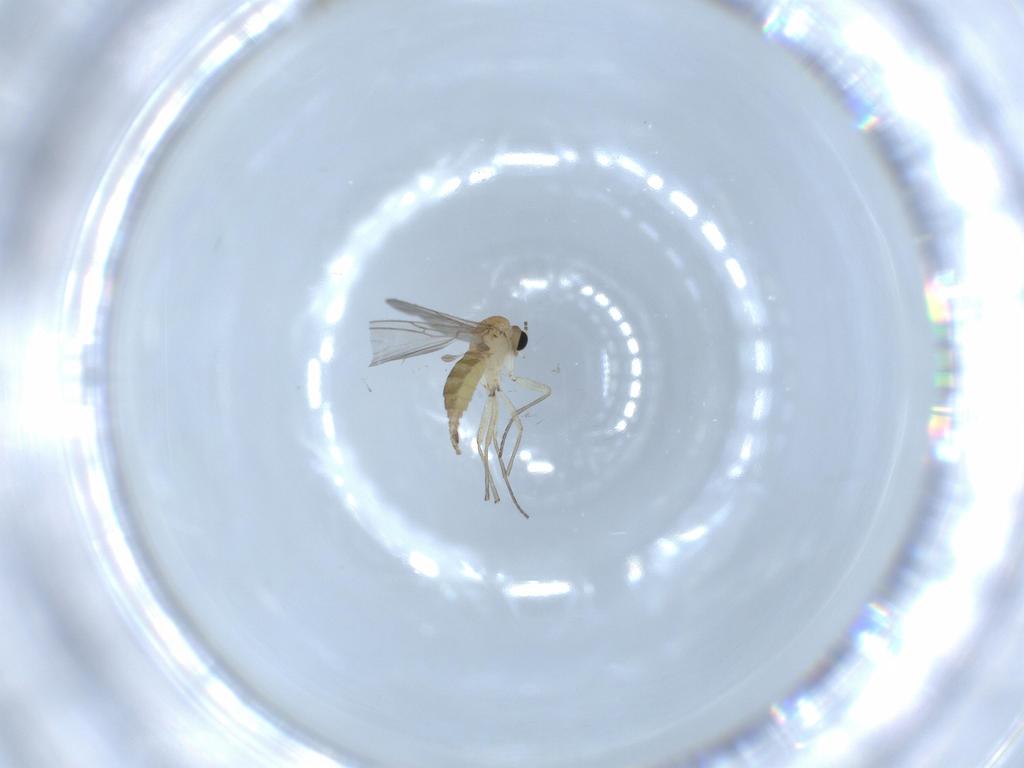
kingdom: Animalia
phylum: Arthropoda
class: Insecta
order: Diptera
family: Sciaridae
